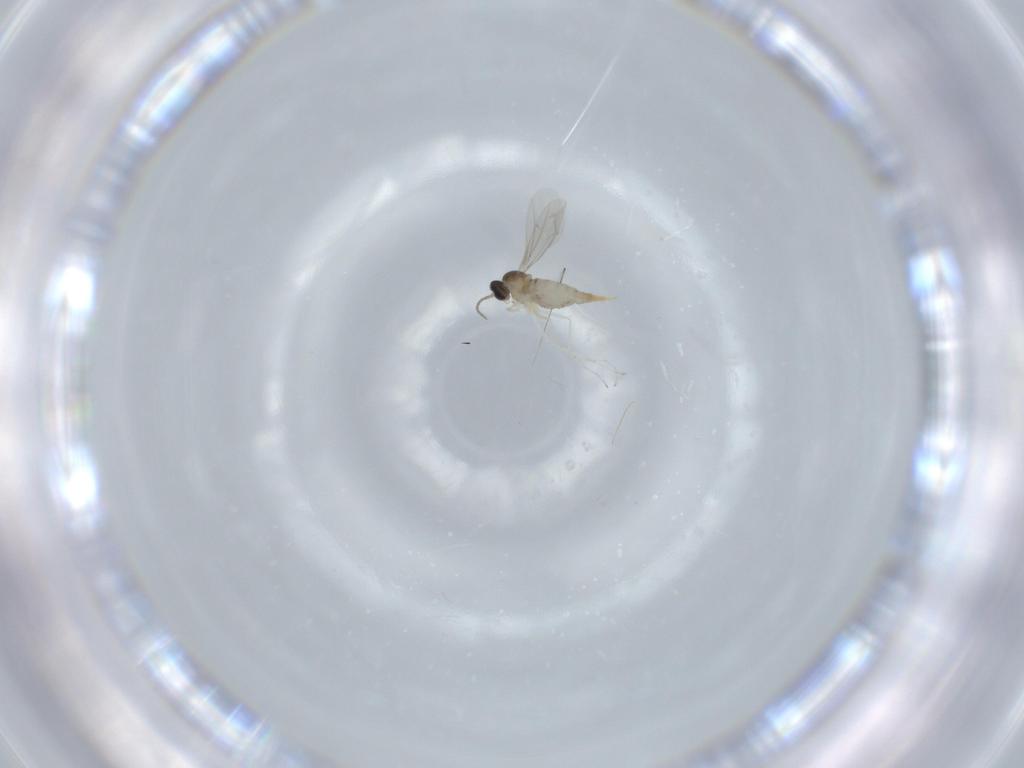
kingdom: Animalia
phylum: Arthropoda
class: Insecta
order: Diptera
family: Cecidomyiidae
